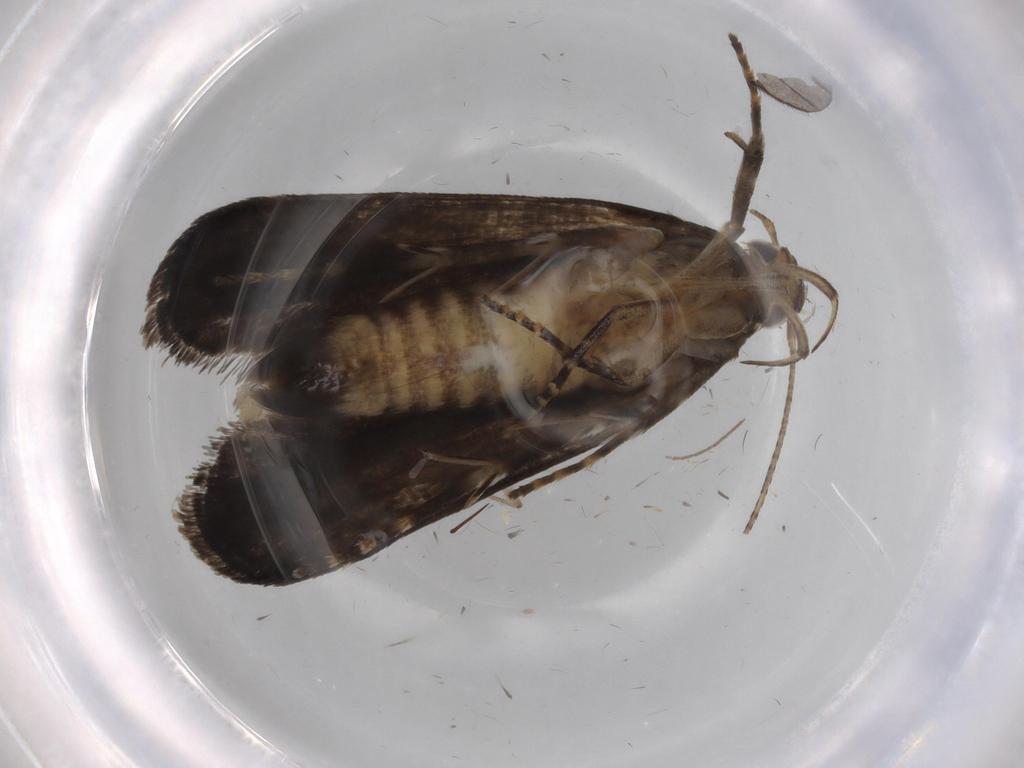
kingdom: Animalia
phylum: Arthropoda
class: Insecta
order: Lepidoptera
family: Gelechiidae
